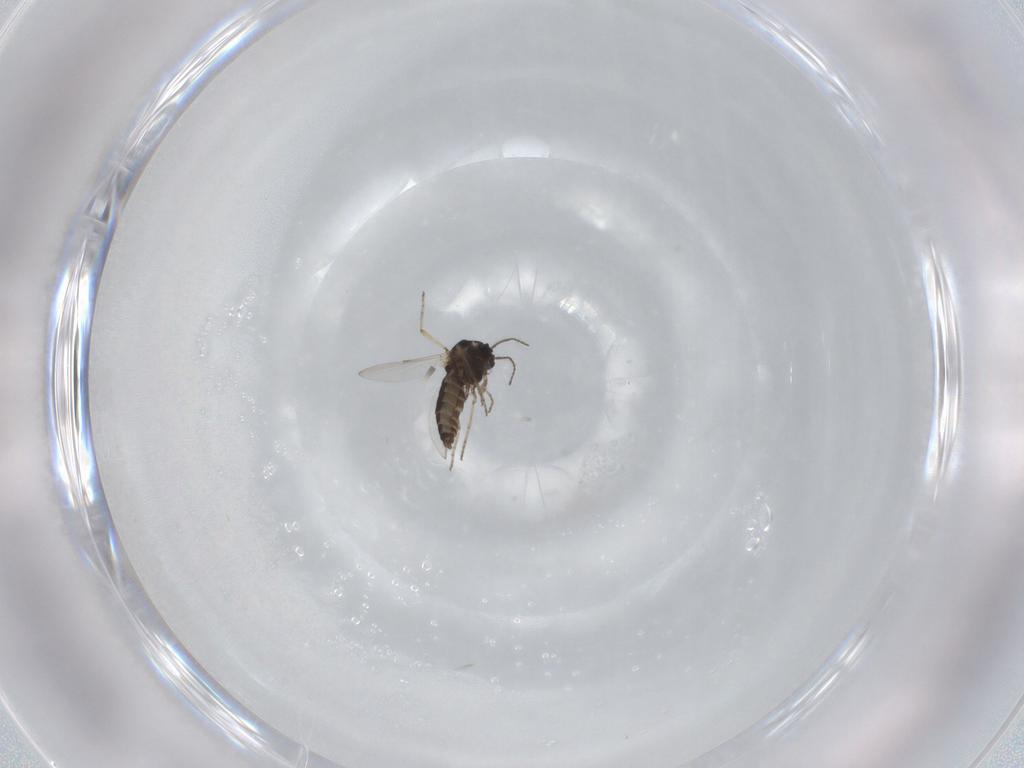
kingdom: Animalia
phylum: Arthropoda
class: Insecta
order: Diptera
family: Ceratopogonidae
